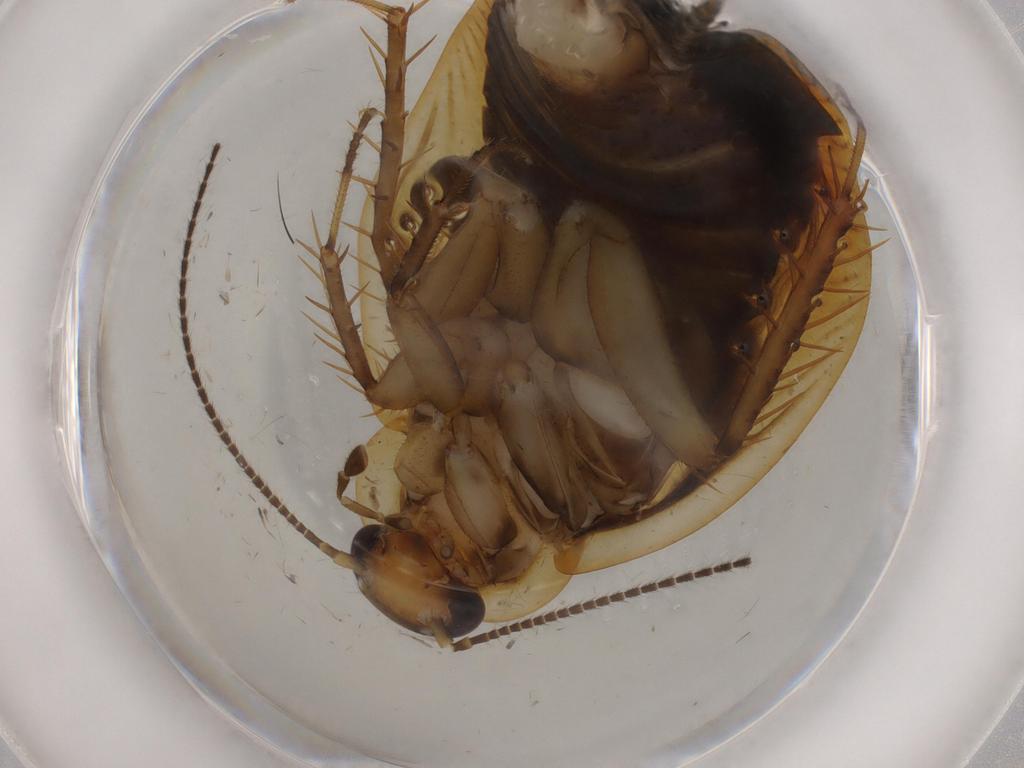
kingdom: Animalia
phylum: Arthropoda
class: Insecta
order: Blattodea
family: Ectobiidae
